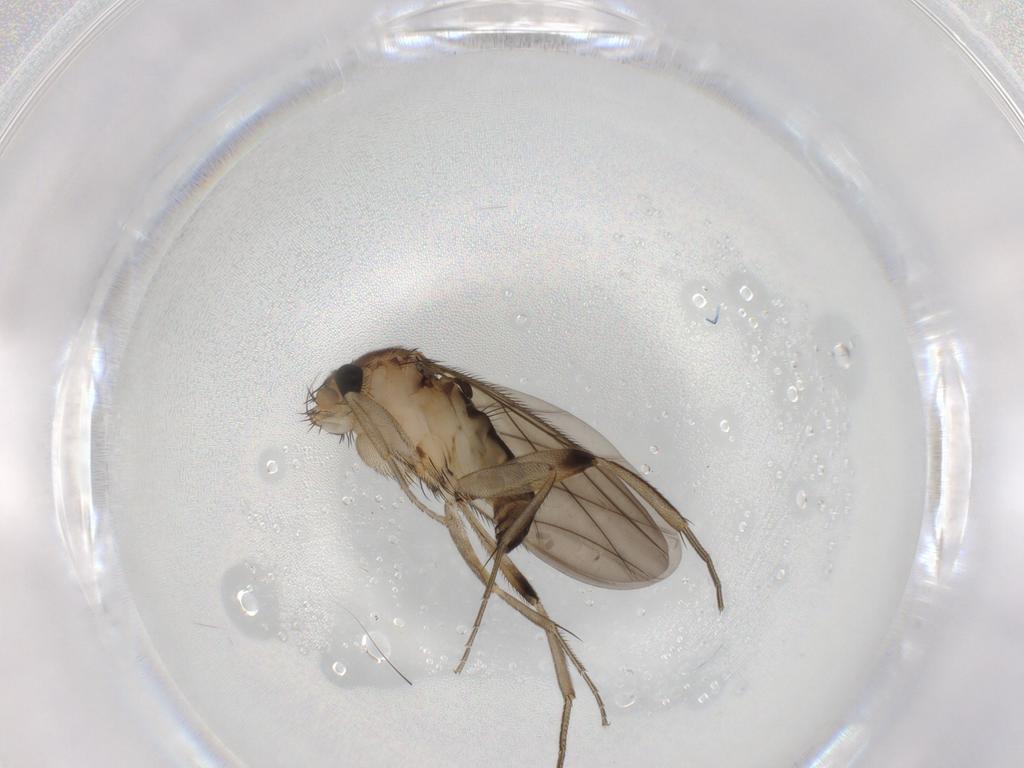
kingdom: Animalia
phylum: Arthropoda
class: Insecta
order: Diptera
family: Phoridae
